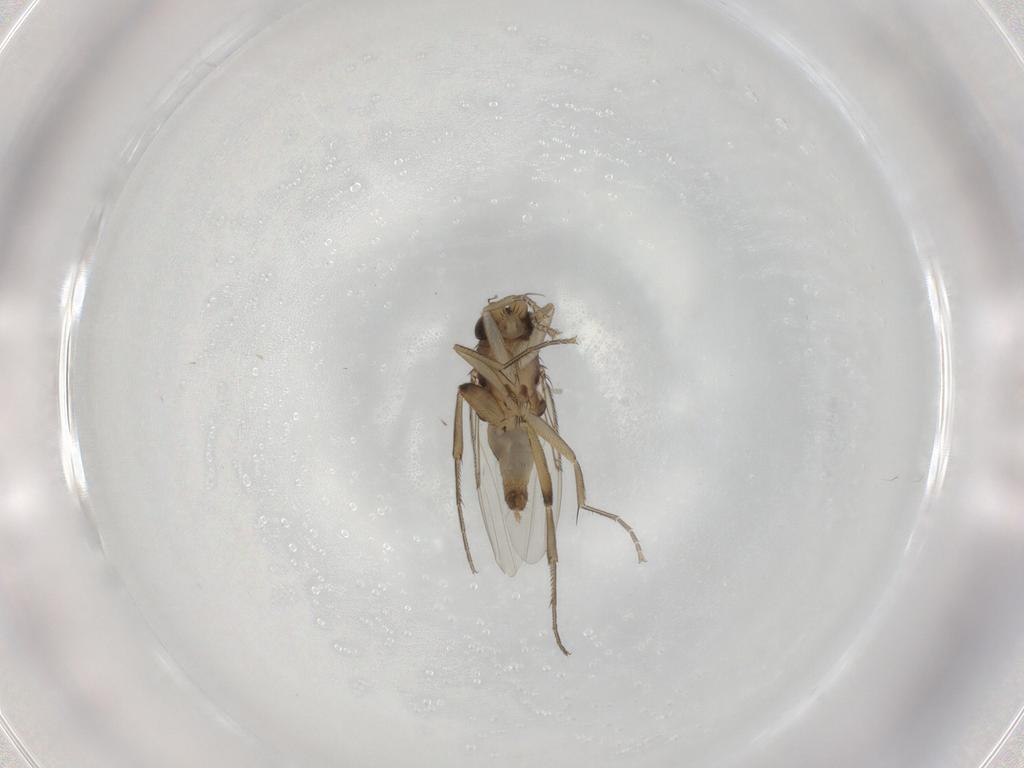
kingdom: Animalia
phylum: Arthropoda
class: Insecta
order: Diptera
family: Phoridae
